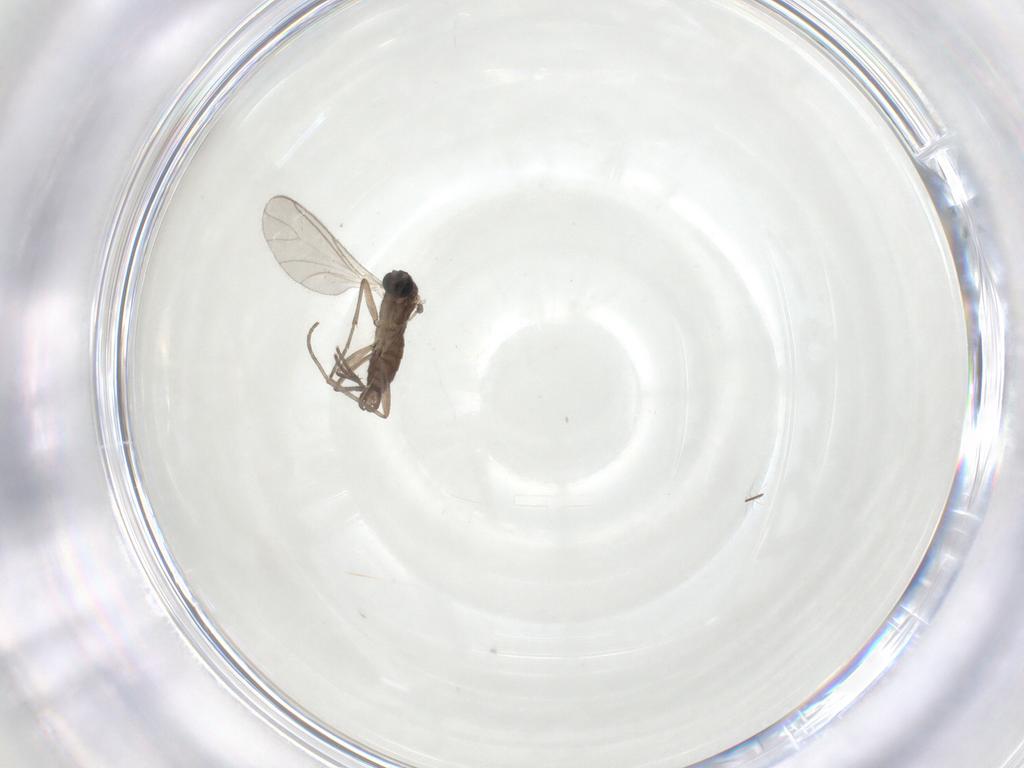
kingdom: Animalia
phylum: Arthropoda
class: Insecta
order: Diptera
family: Sciaridae
